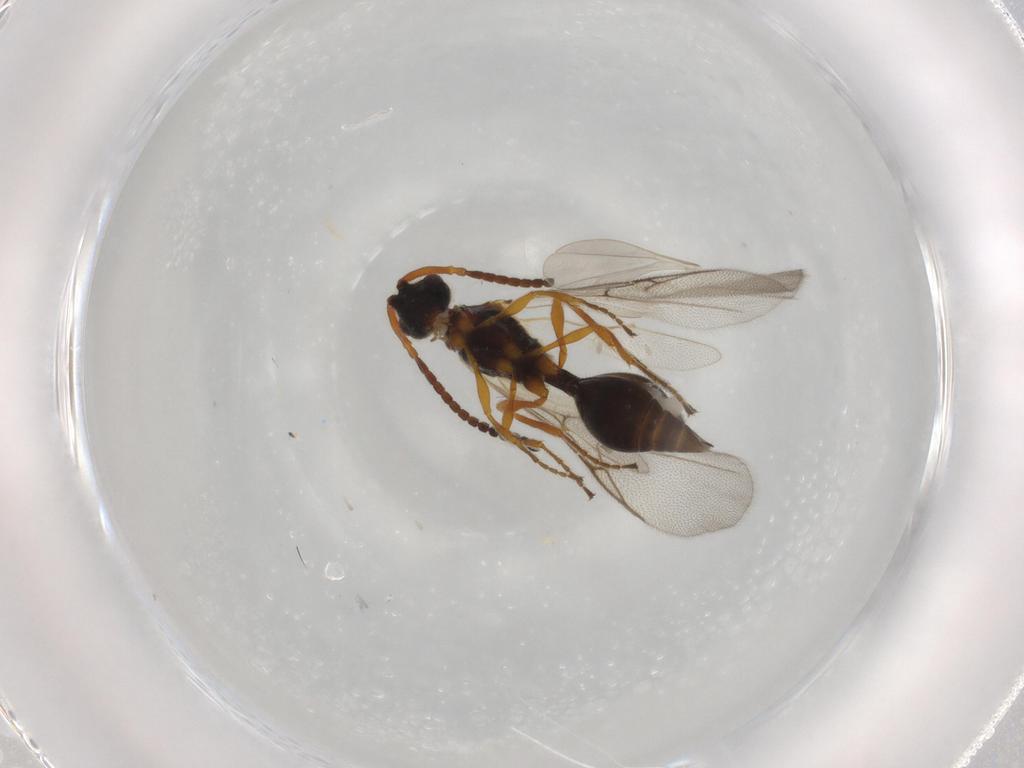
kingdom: Animalia
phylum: Arthropoda
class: Insecta
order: Hymenoptera
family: Diapriidae
